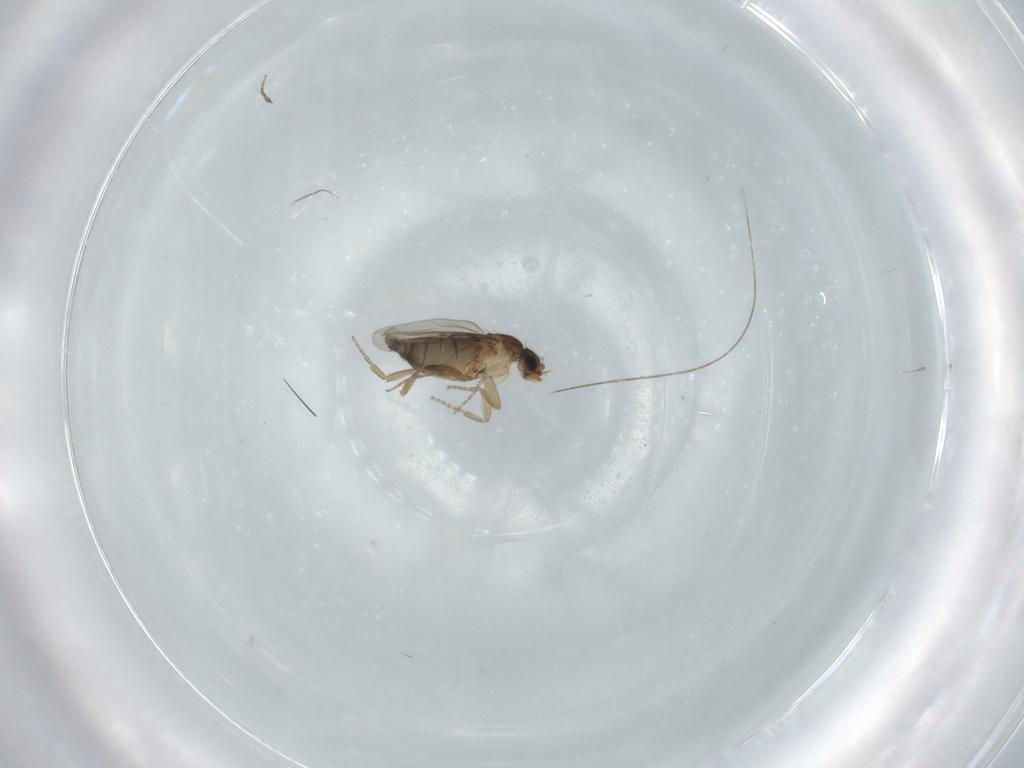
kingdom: Animalia
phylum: Arthropoda
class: Insecta
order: Diptera
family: Phoridae
